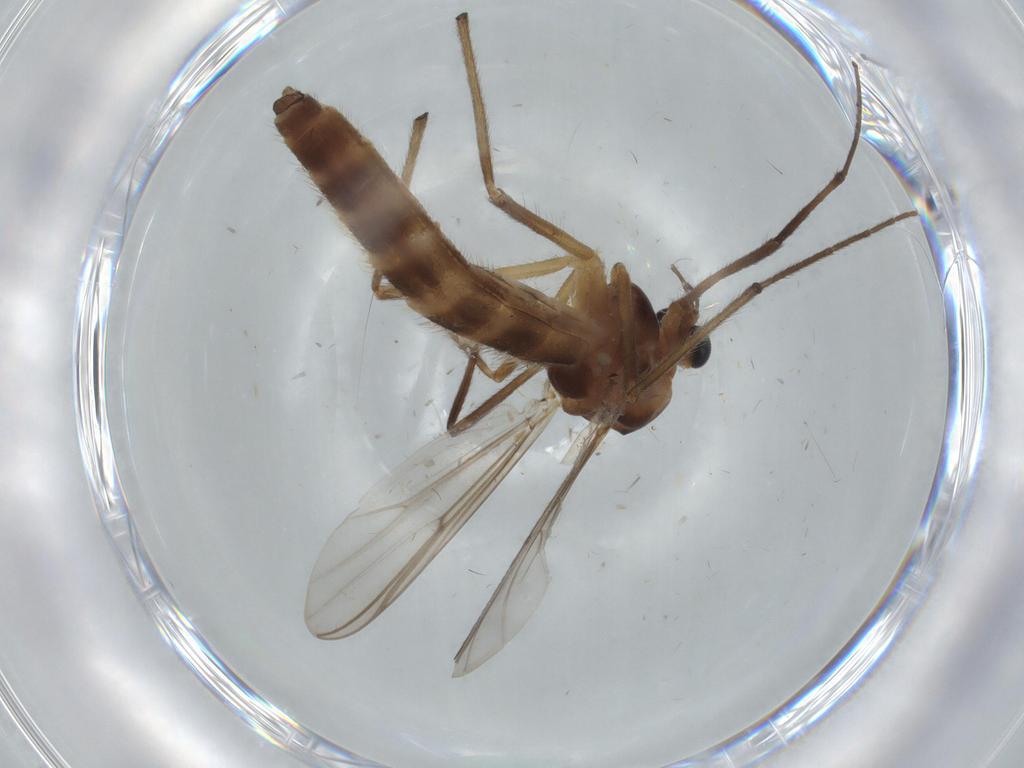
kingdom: Animalia
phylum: Arthropoda
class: Insecta
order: Diptera
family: Chironomidae
